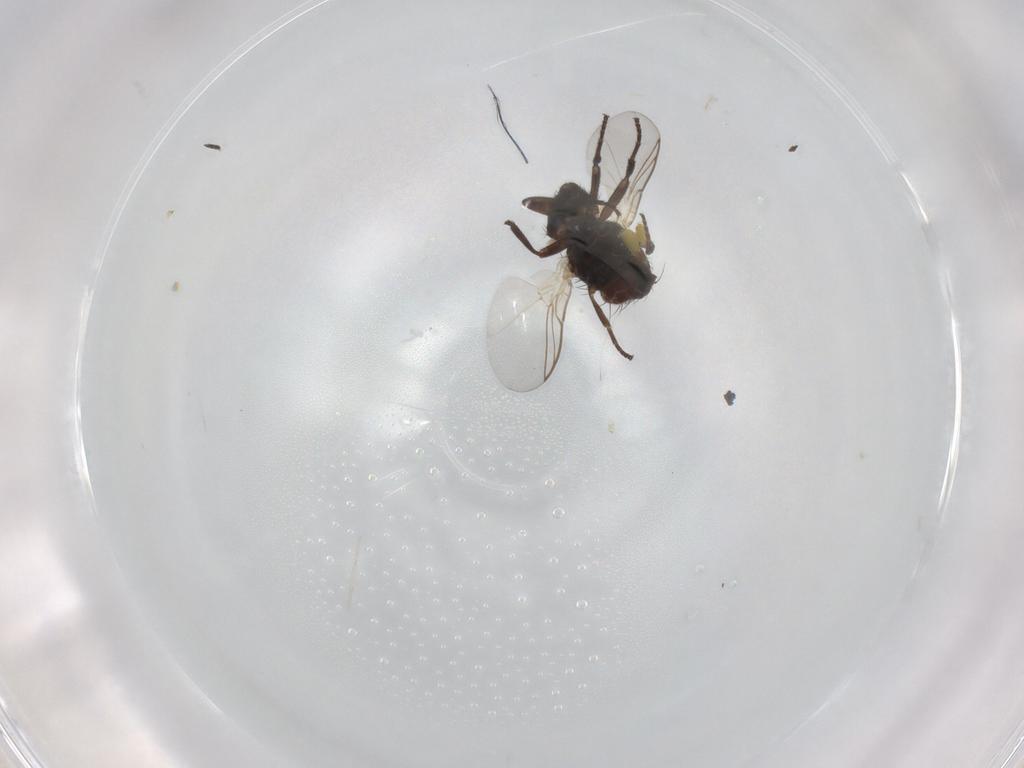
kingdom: Animalia
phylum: Arthropoda
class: Insecta
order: Diptera
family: Agromyzidae
